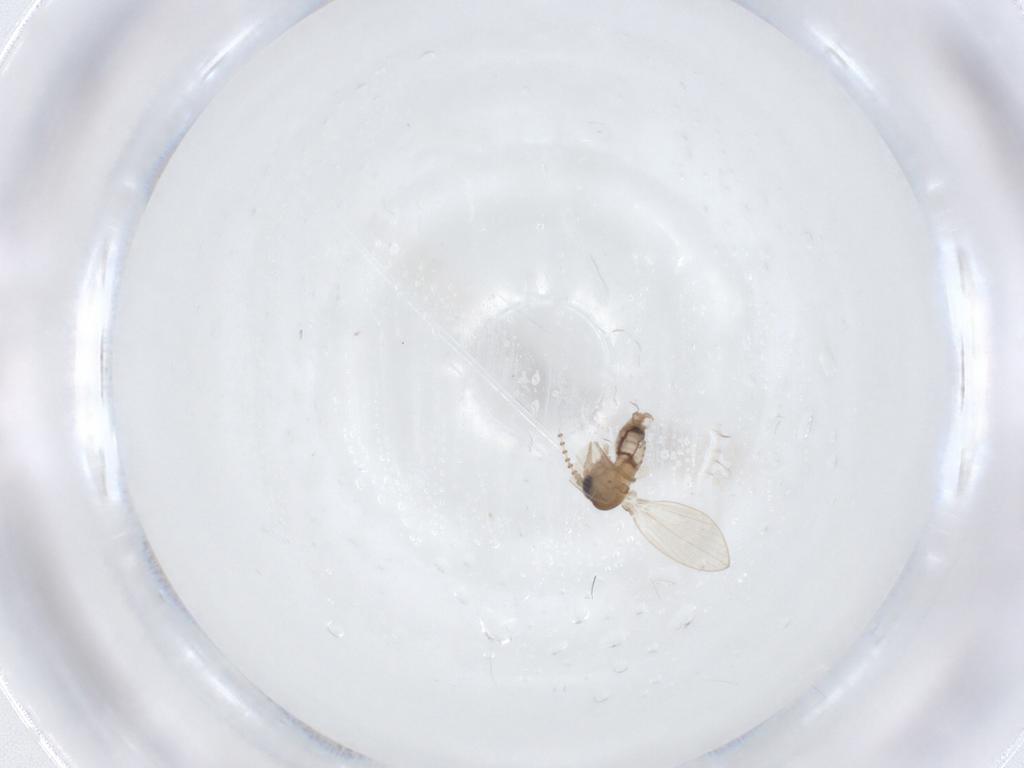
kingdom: Animalia
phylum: Arthropoda
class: Insecta
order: Diptera
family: Psychodidae
